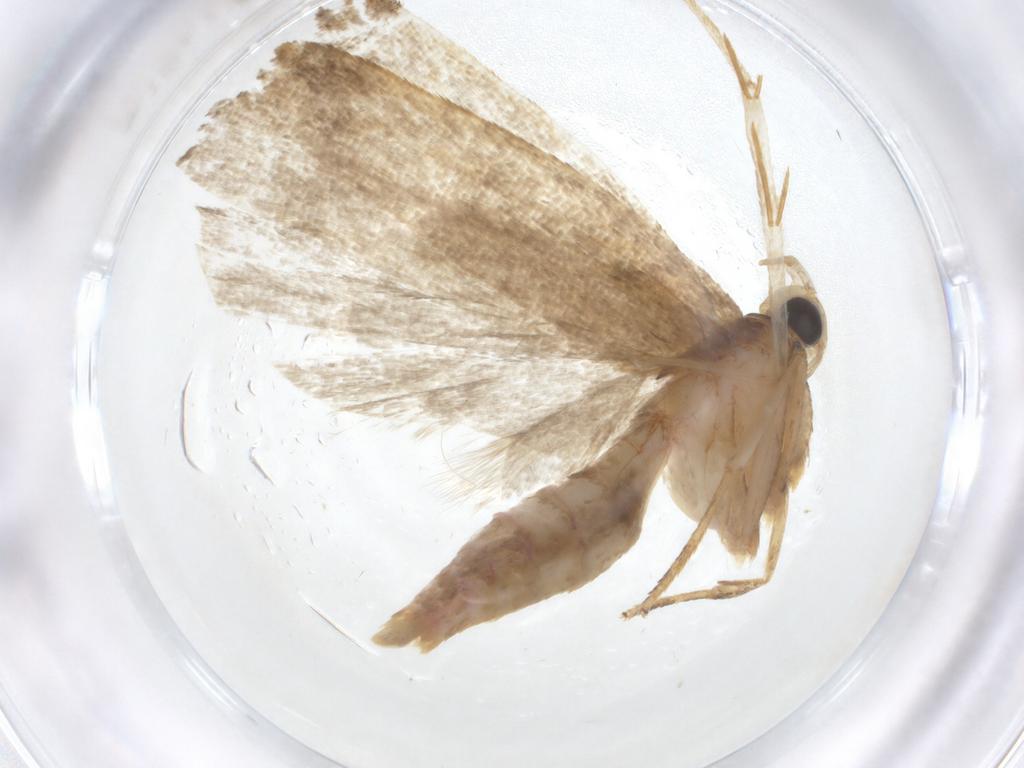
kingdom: Animalia
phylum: Arthropoda
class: Insecta
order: Lepidoptera
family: Autostichidae
